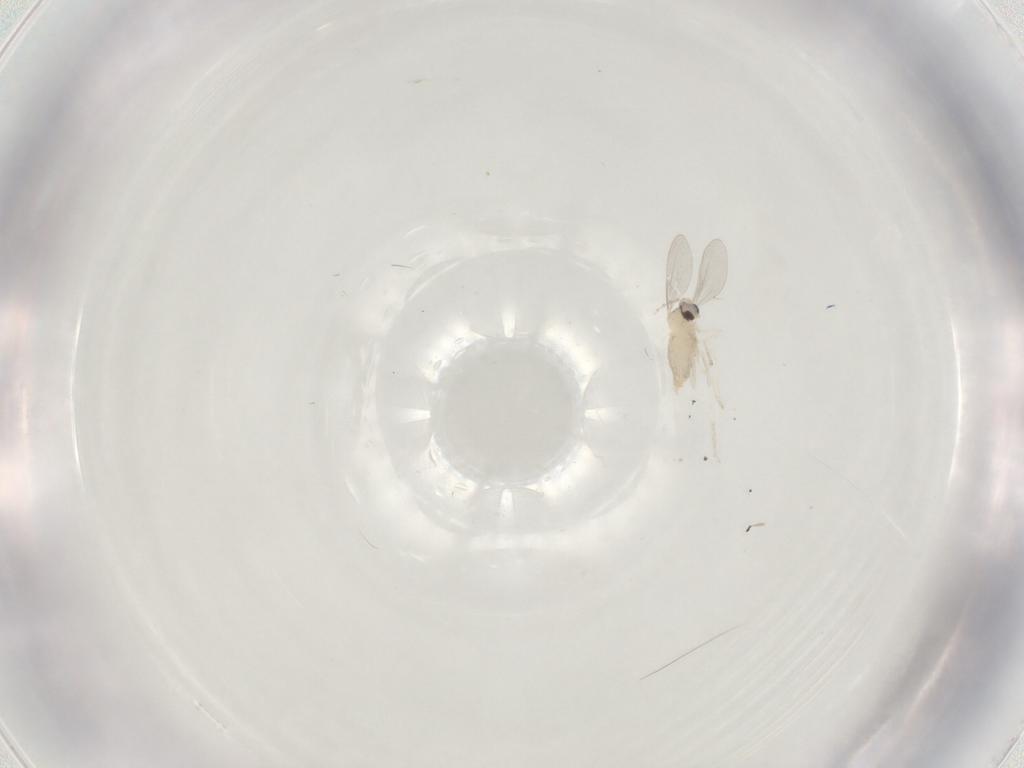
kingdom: Animalia
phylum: Arthropoda
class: Insecta
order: Diptera
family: Cecidomyiidae
